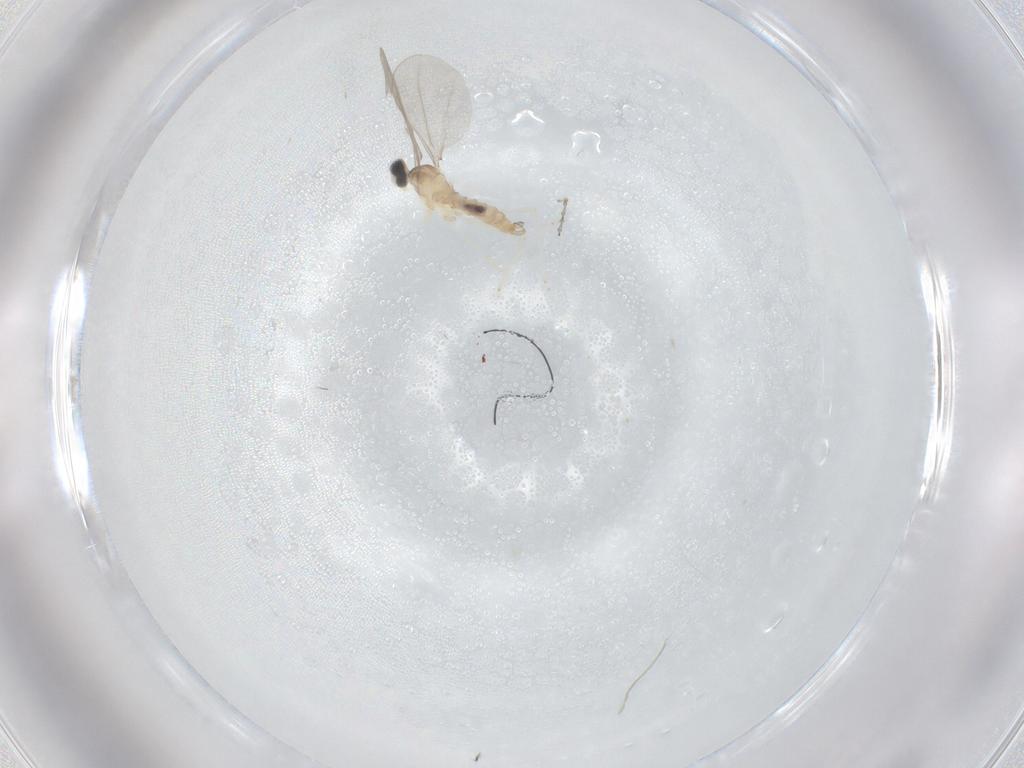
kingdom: Animalia
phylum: Arthropoda
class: Insecta
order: Diptera
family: Cecidomyiidae
